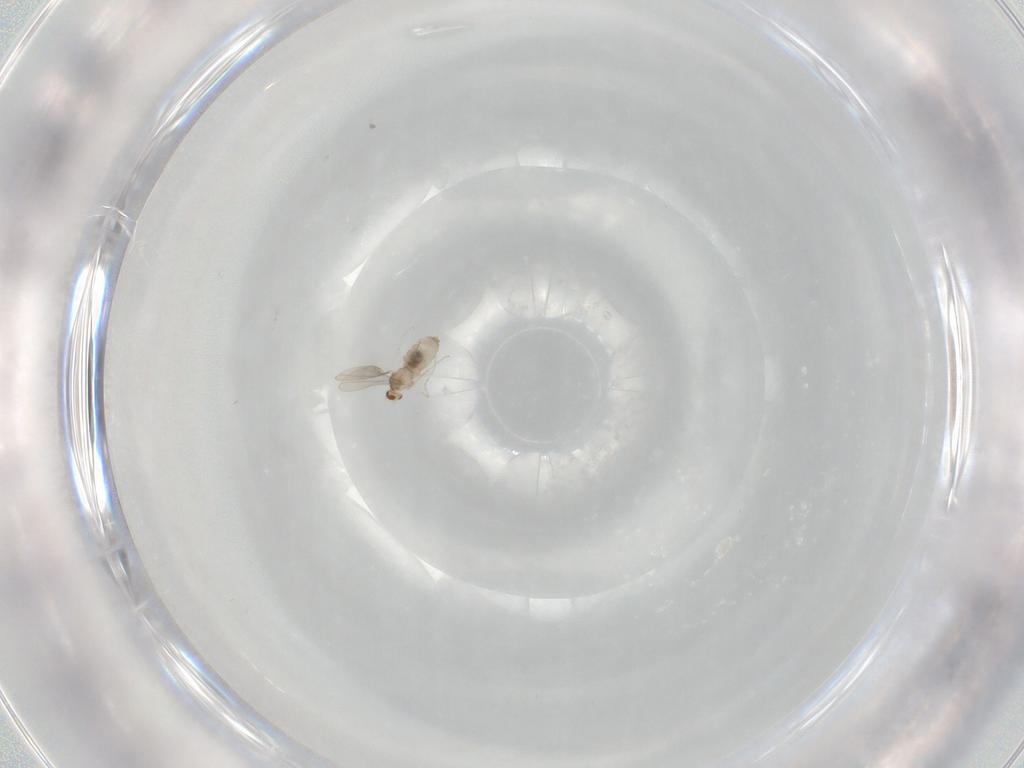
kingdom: Animalia
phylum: Arthropoda
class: Insecta
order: Diptera
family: Cecidomyiidae
